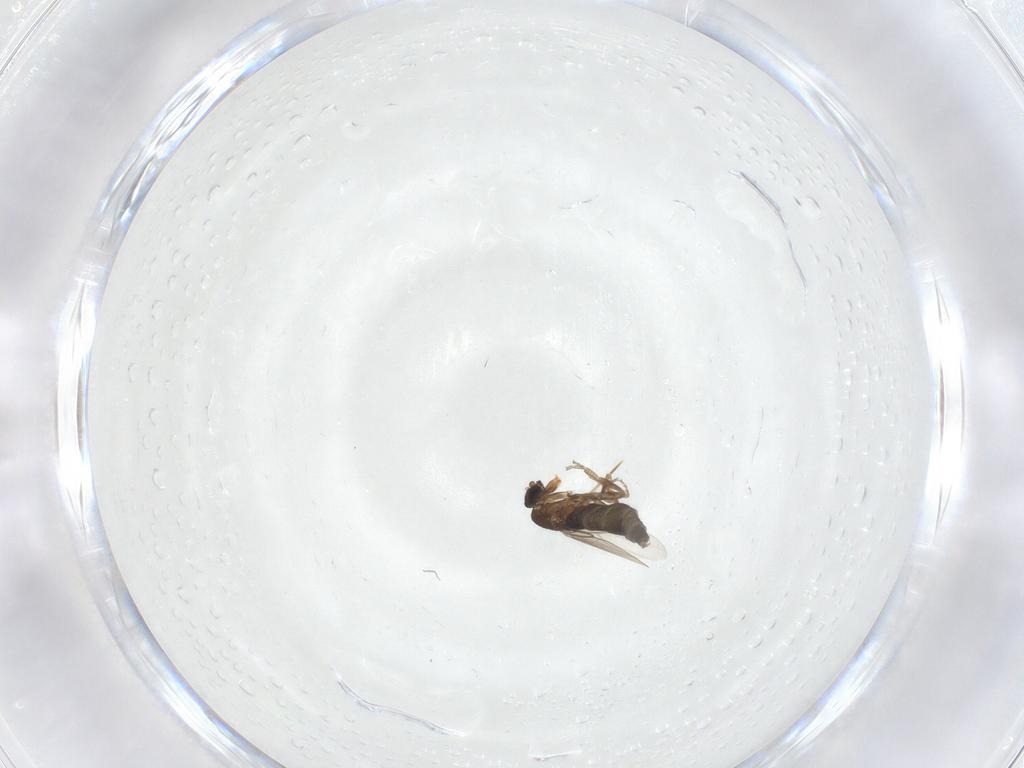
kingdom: Animalia
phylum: Arthropoda
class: Insecta
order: Diptera
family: Phoridae
